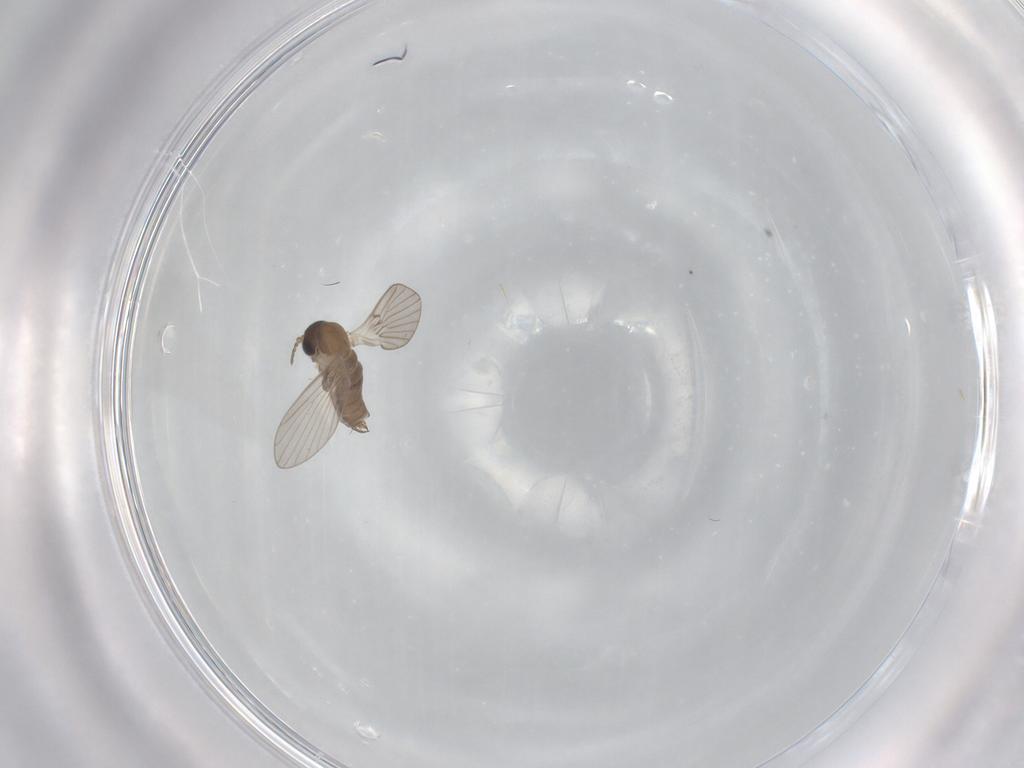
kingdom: Animalia
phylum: Arthropoda
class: Insecta
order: Diptera
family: Psychodidae
